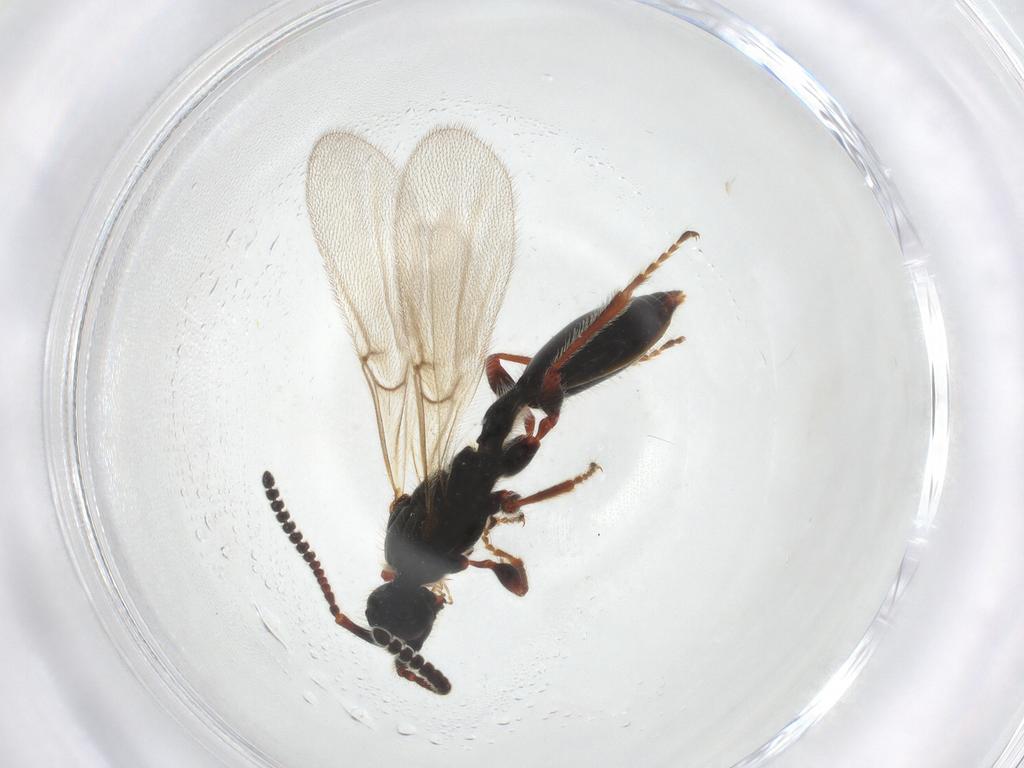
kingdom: Animalia
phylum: Arthropoda
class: Insecta
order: Hymenoptera
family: Diapriidae
